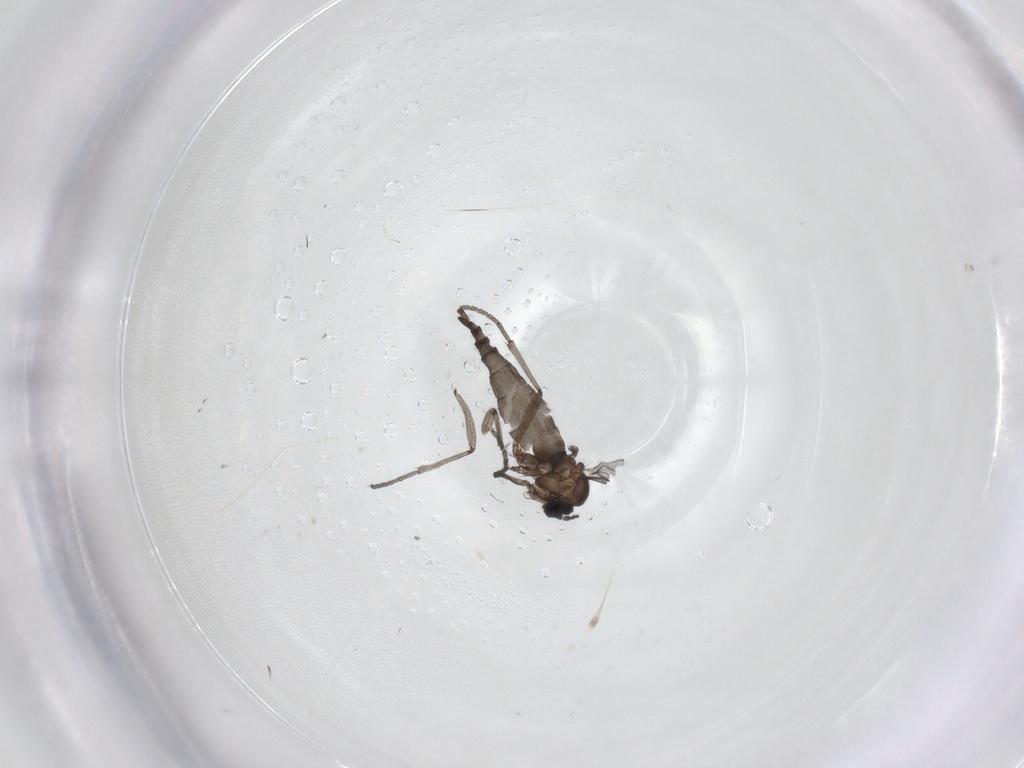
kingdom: Animalia
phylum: Arthropoda
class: Insecta
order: Diptera
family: Sciaridae
